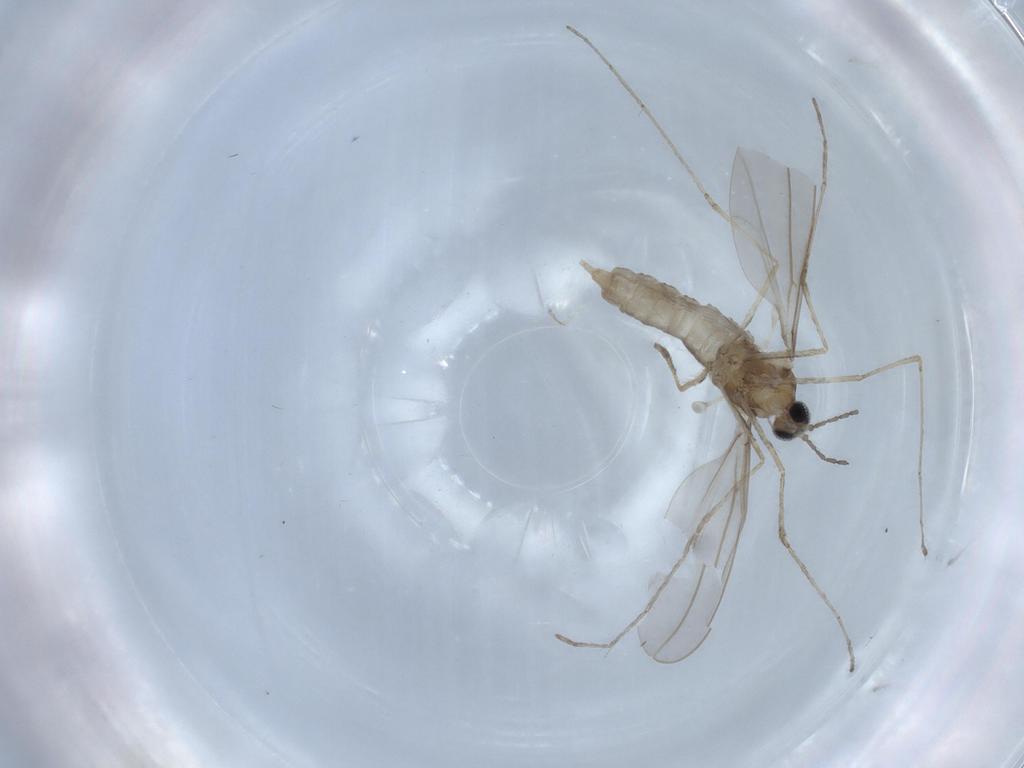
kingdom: Animalia
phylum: Arthropoda
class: Insecta
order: Diptera
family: Cecidomyiidae
